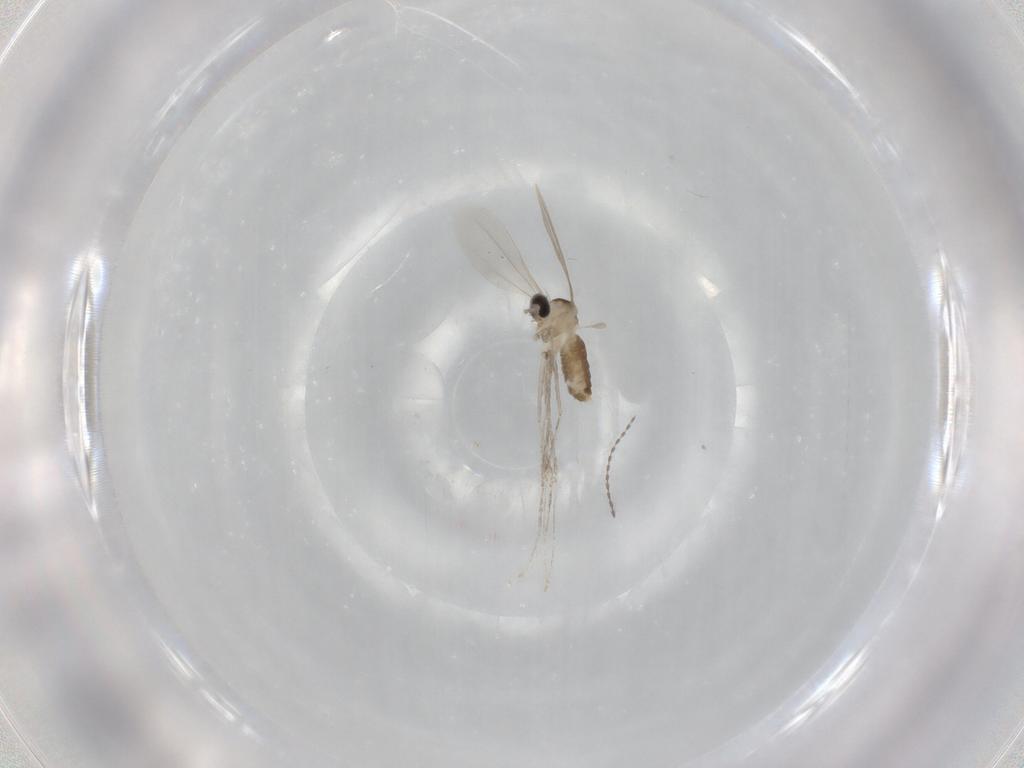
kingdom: Animalia
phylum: Arthropoda
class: Insecta
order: Diptera
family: Cecidomyiidae
